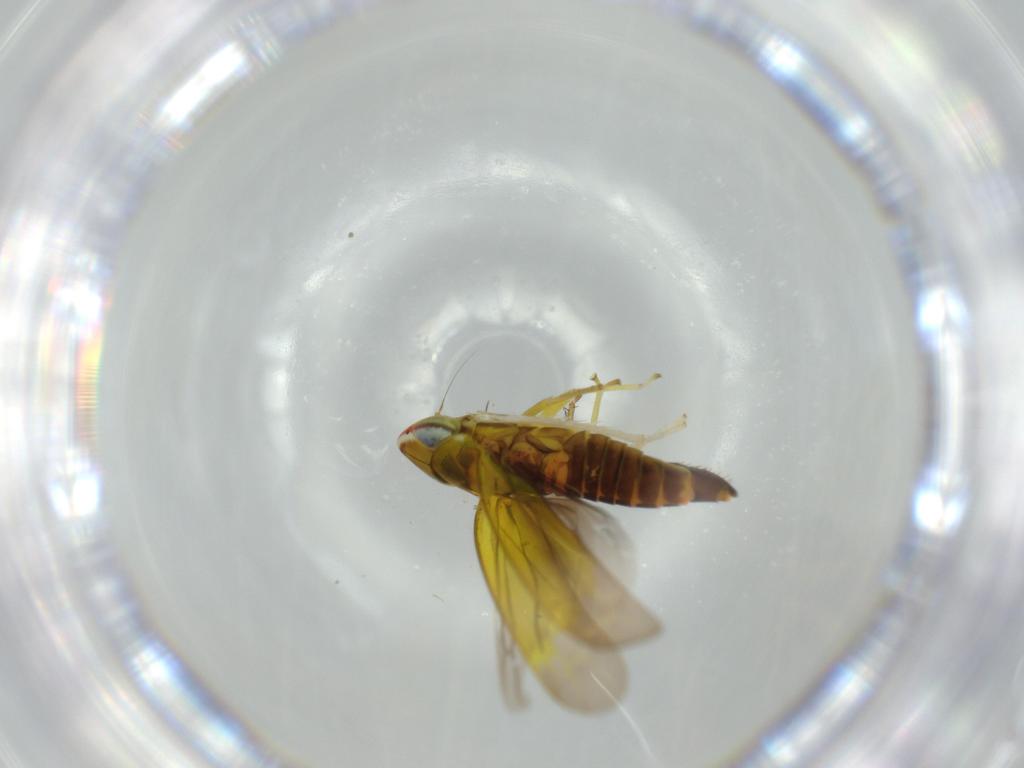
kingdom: Animalia
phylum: Arthropoda
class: Insecta
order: Hemiptera
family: Cicadellidae
